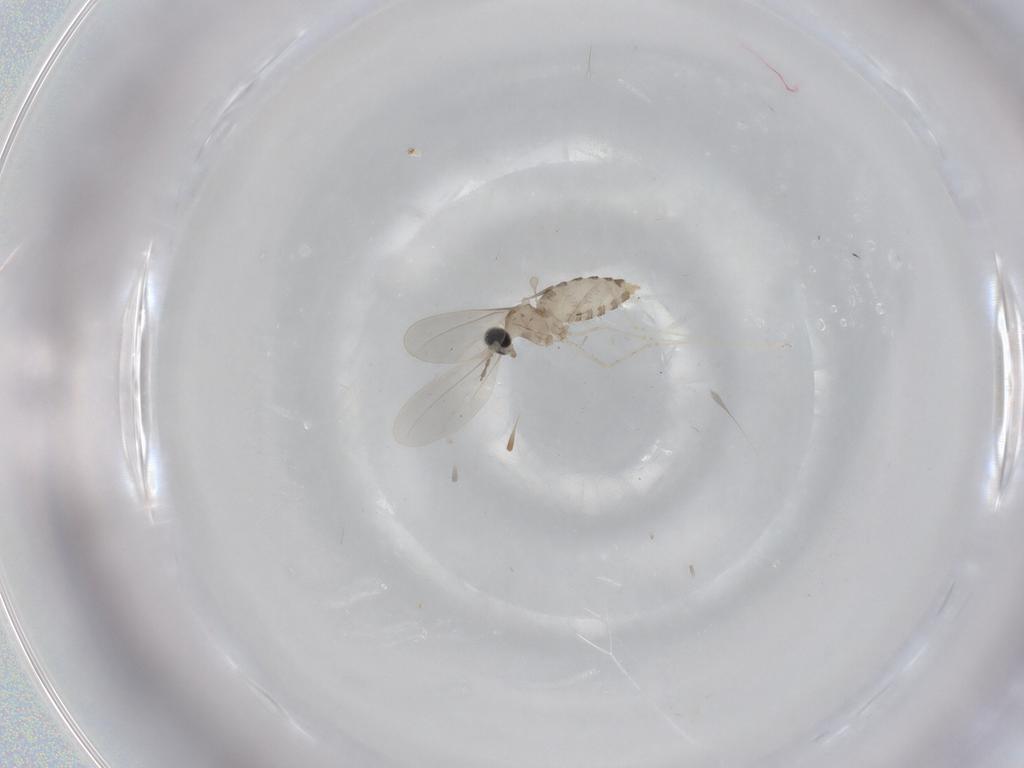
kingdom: Animalia
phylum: Arthropoda
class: Insecta
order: Diptera
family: Cecidomyiidae
